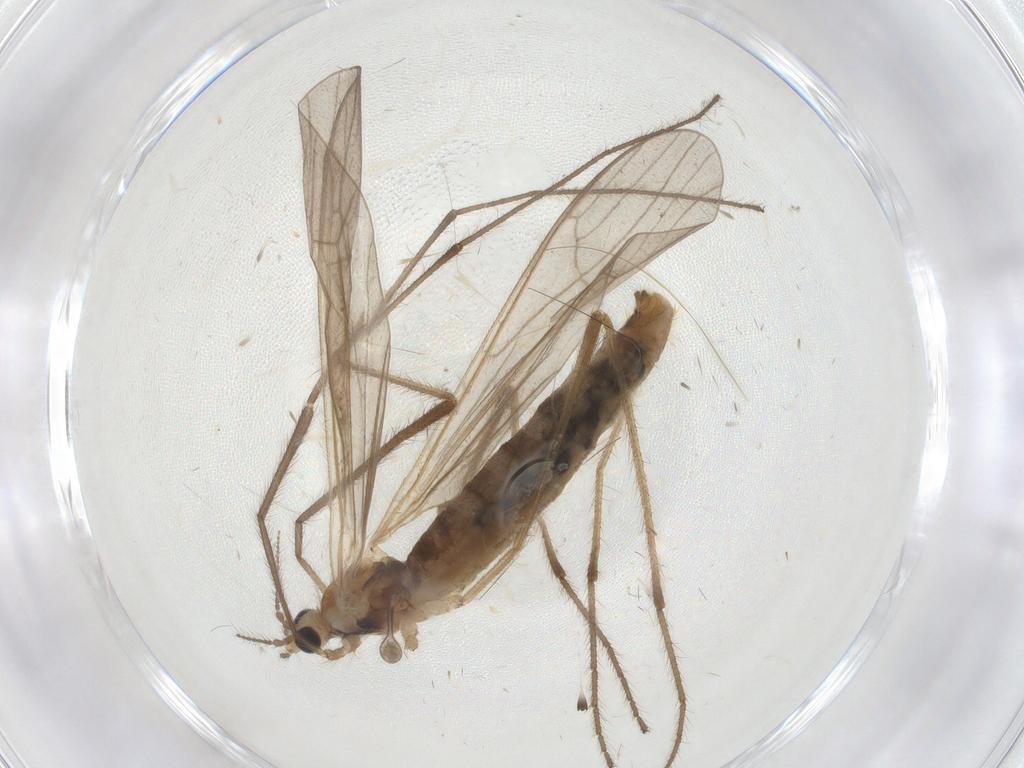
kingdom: Animalia
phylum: Arthropoda
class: Insecta
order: Diptera
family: Limoniidae
